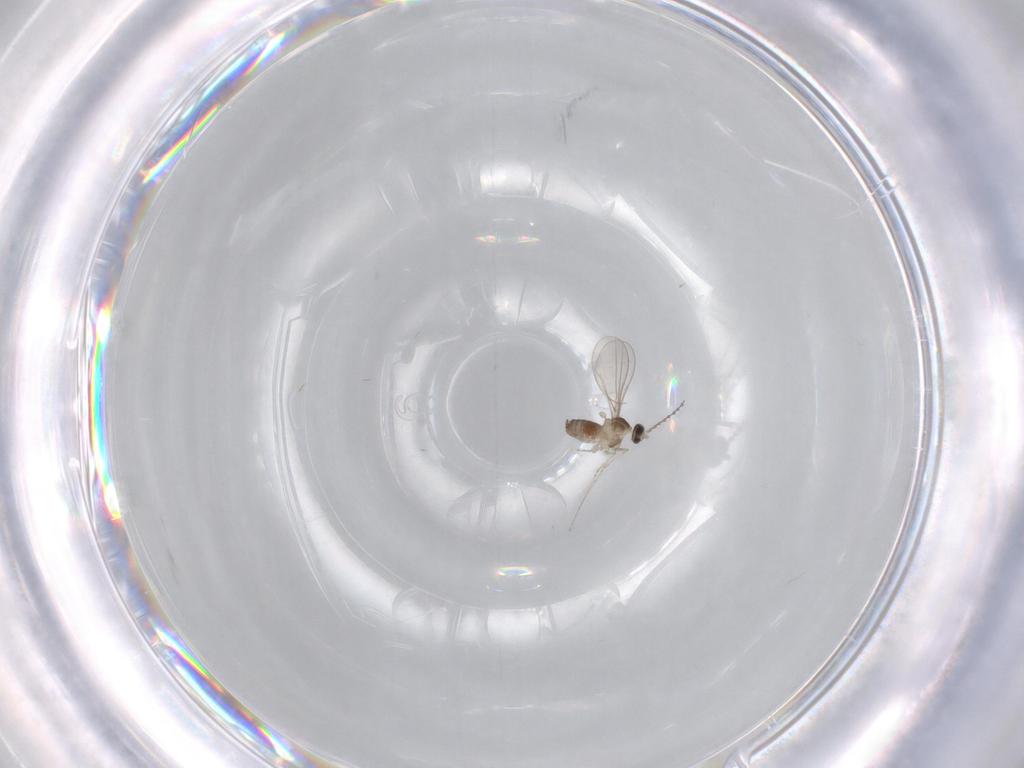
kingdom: Animalia
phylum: Arthropoda
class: Insecta
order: Diptera
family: Cecidomyiidae
